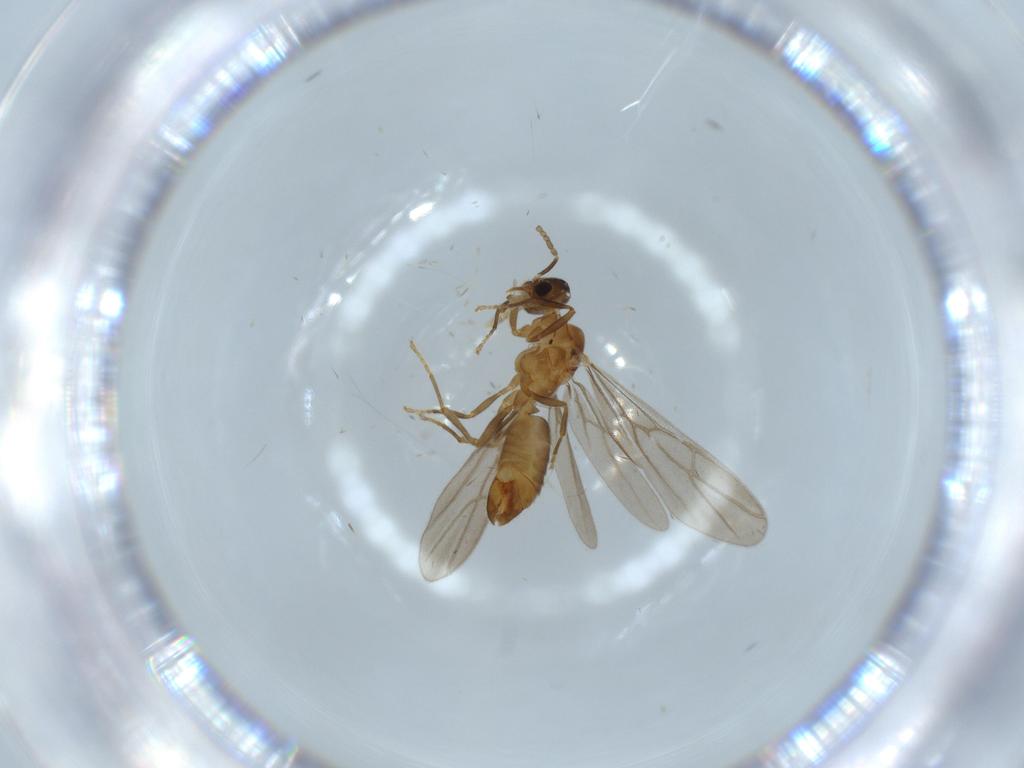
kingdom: Animalia
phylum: Arthropoda
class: Insecta
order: Hymenoptera
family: Formicidae
